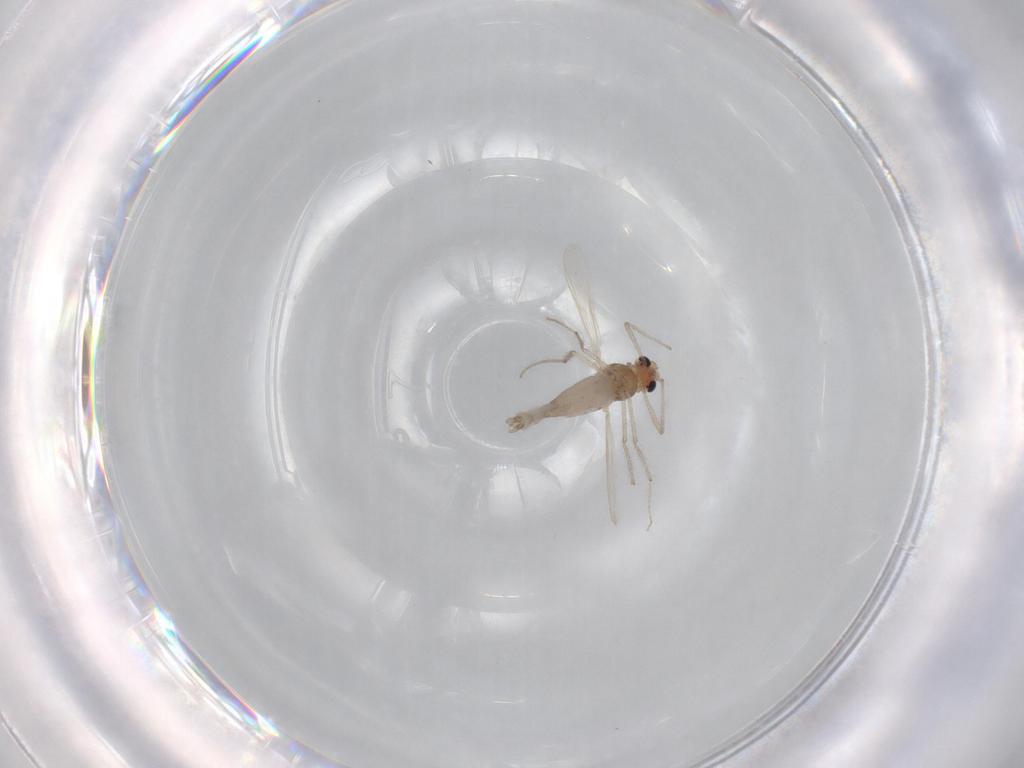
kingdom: Animalia
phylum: Arthropoda
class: Insecta
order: Diptera
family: Chironomidae
